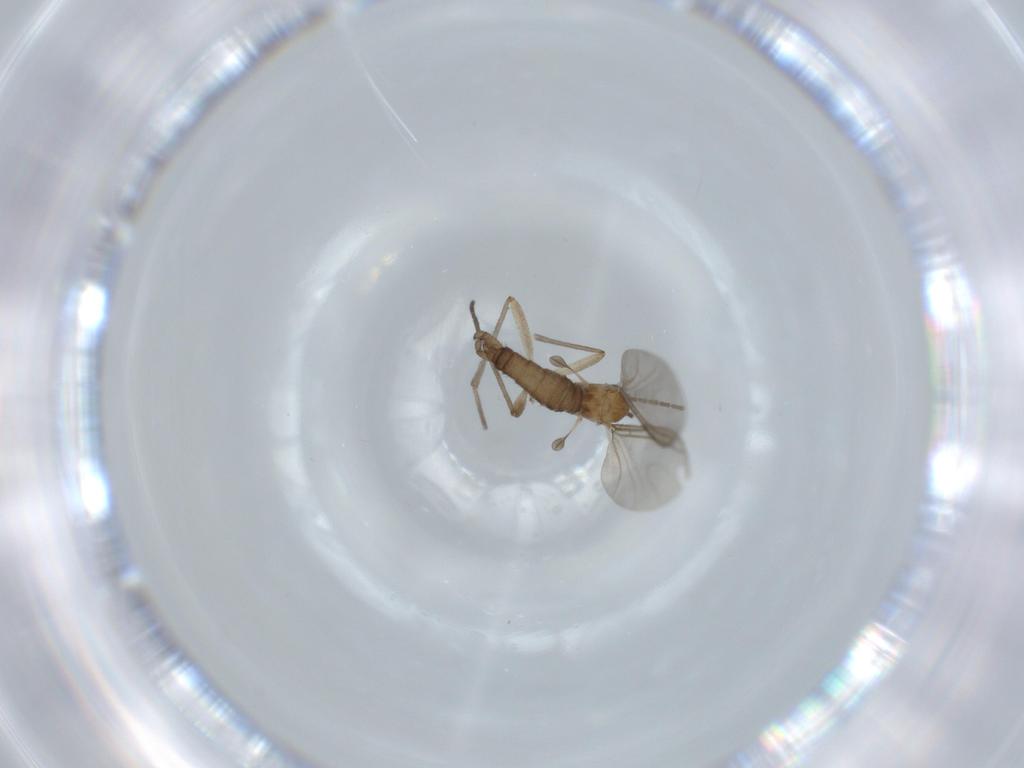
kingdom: Animalia
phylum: Arthropoda
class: Insecta
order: Diptera
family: Sciaridae
